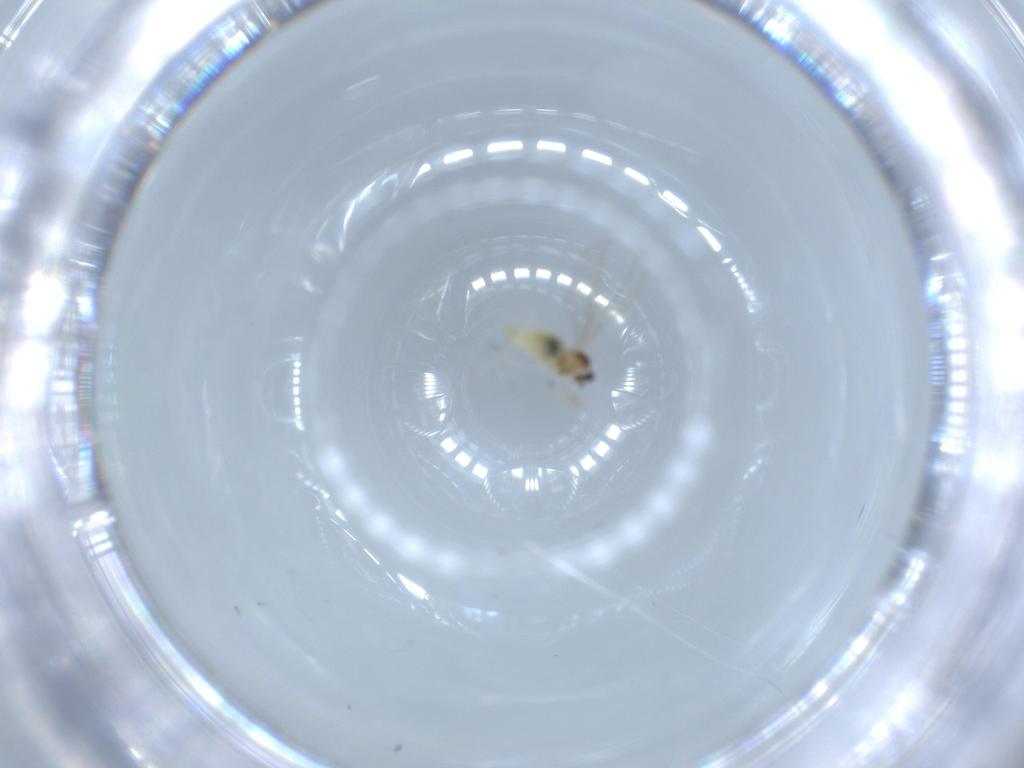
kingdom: Animalia
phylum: Arthropoda
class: Insecta
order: Diptera
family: Cecidomyiidae
